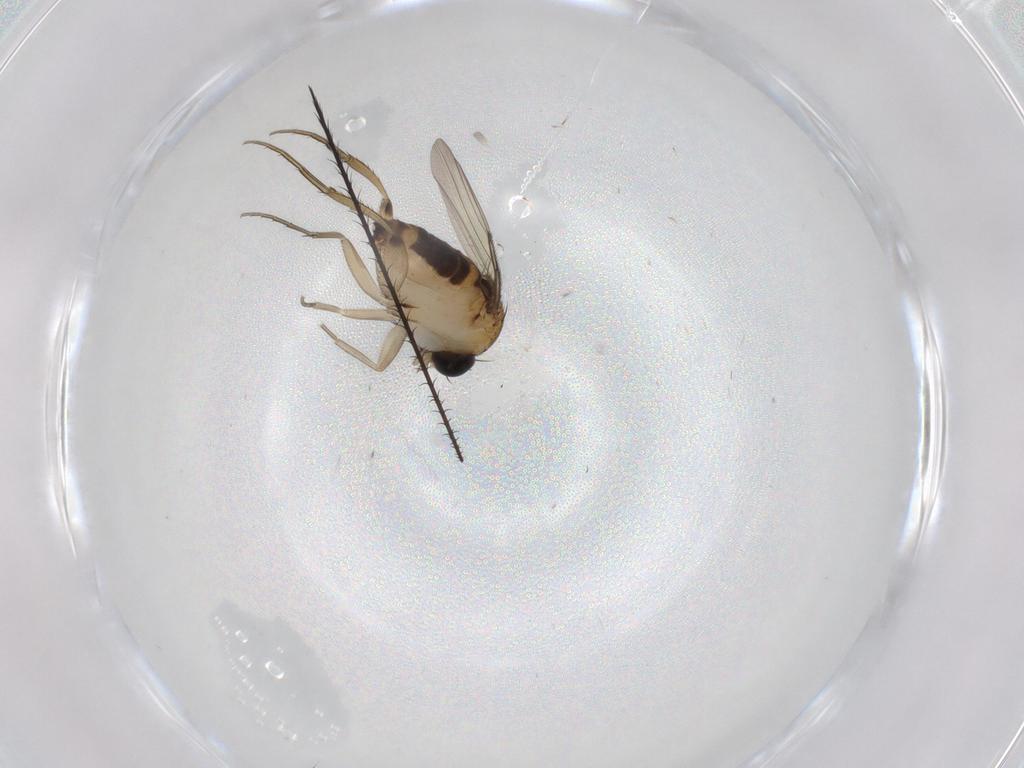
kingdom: Animalia
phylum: Arthropoda
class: Insecta
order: Diptera
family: Phoridae
